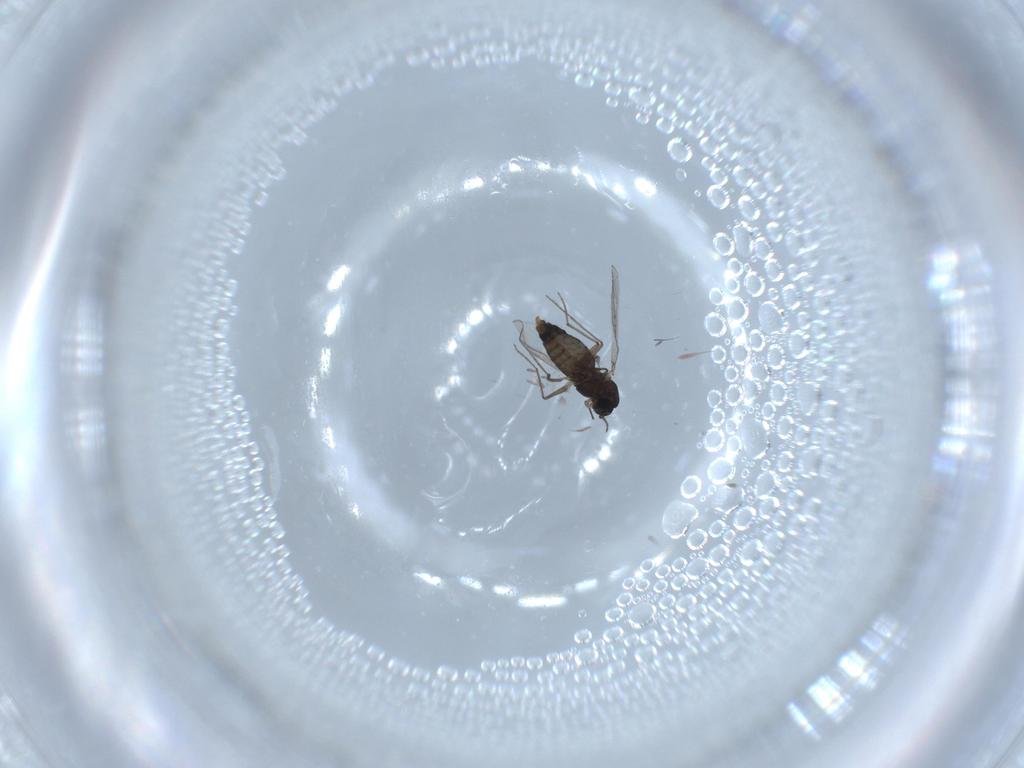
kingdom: Animalia
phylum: Arthropoda
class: Insecta
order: Diptera
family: Chironomidae
